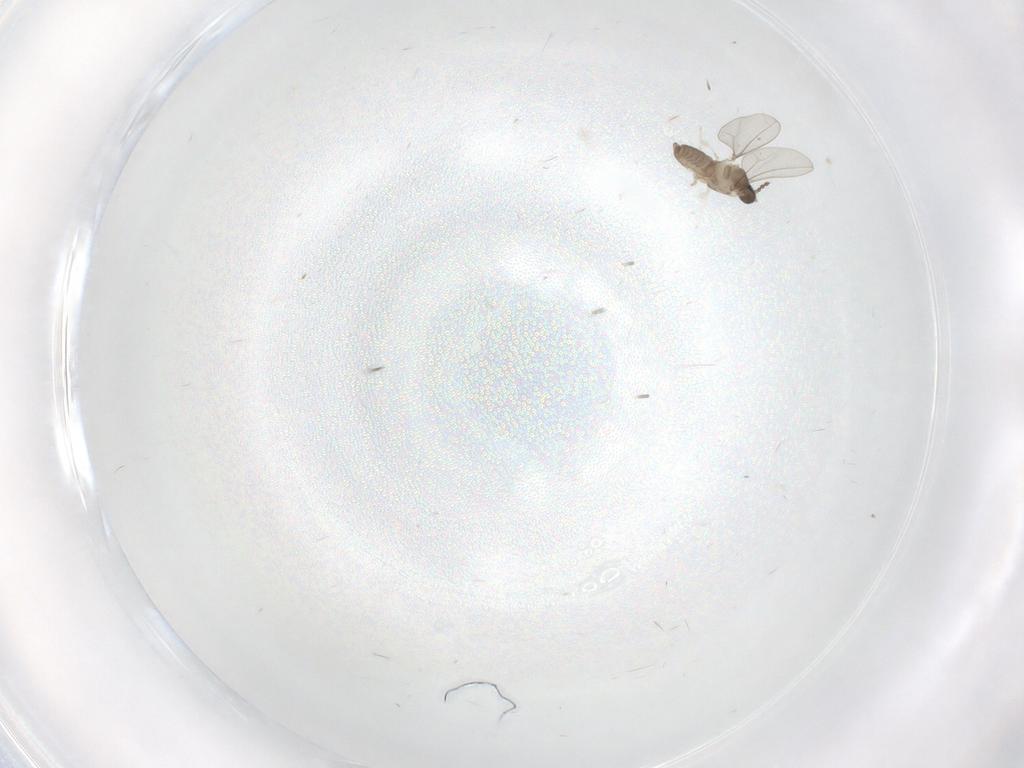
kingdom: Animalia
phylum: Arthropoda
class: Insecta
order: Diptera
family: Cecidomyiidae
